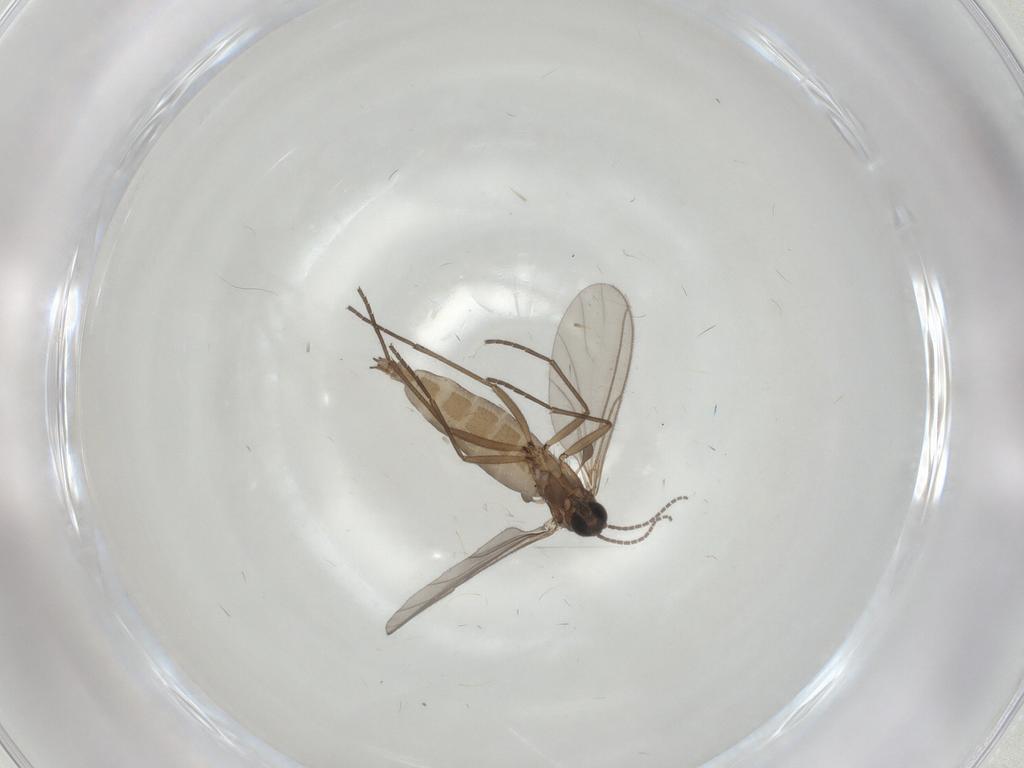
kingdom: Animalia
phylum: Arthropoda
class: Insecta
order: Diptera
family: Sciaridae
